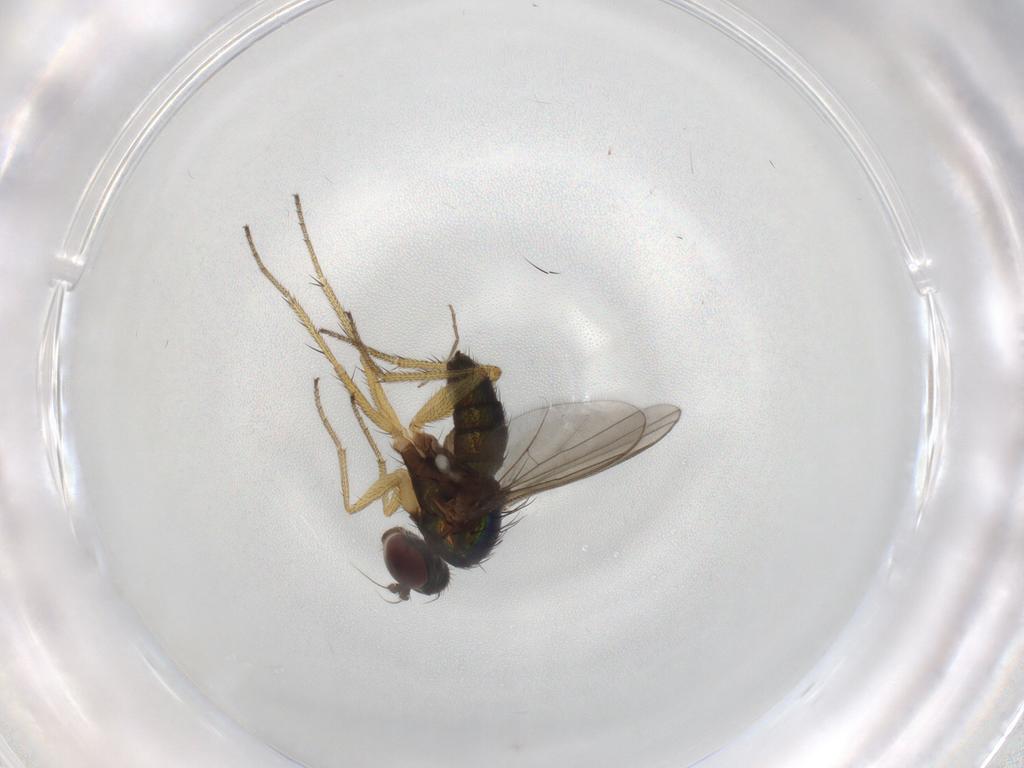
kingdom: Animalia
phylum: Arthropoda
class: Insecta
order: Diptera
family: Chironomidae
